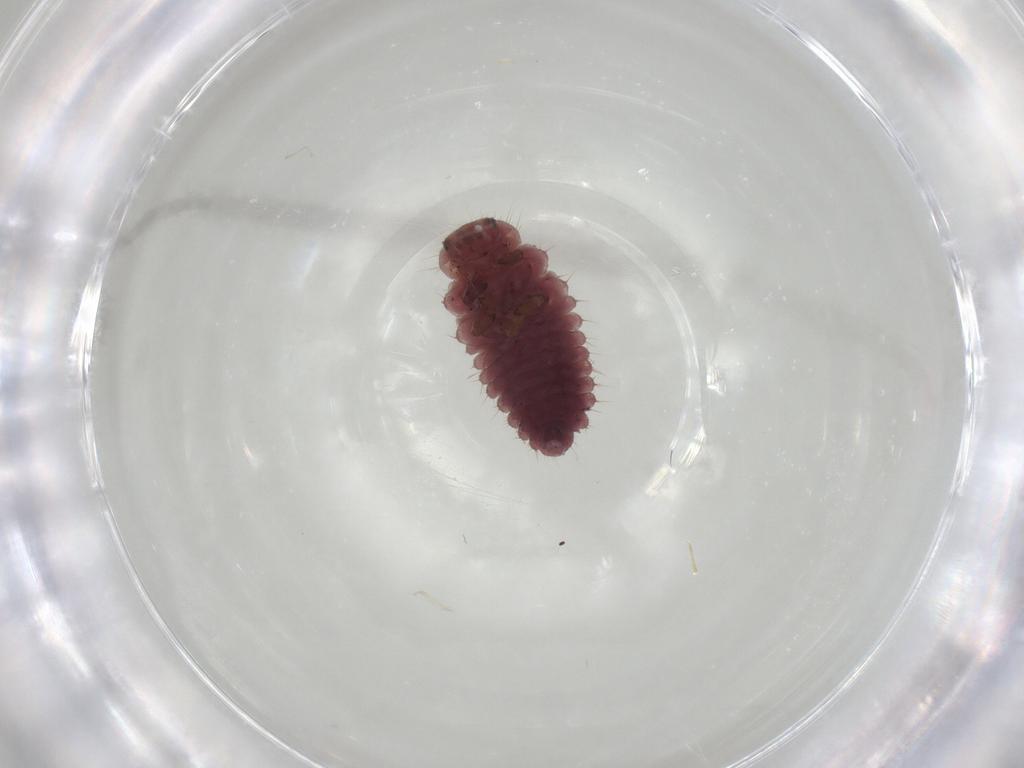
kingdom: Animalia
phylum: Arthropoda
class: Insecta
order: Coleoptera
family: Coccinellidae
